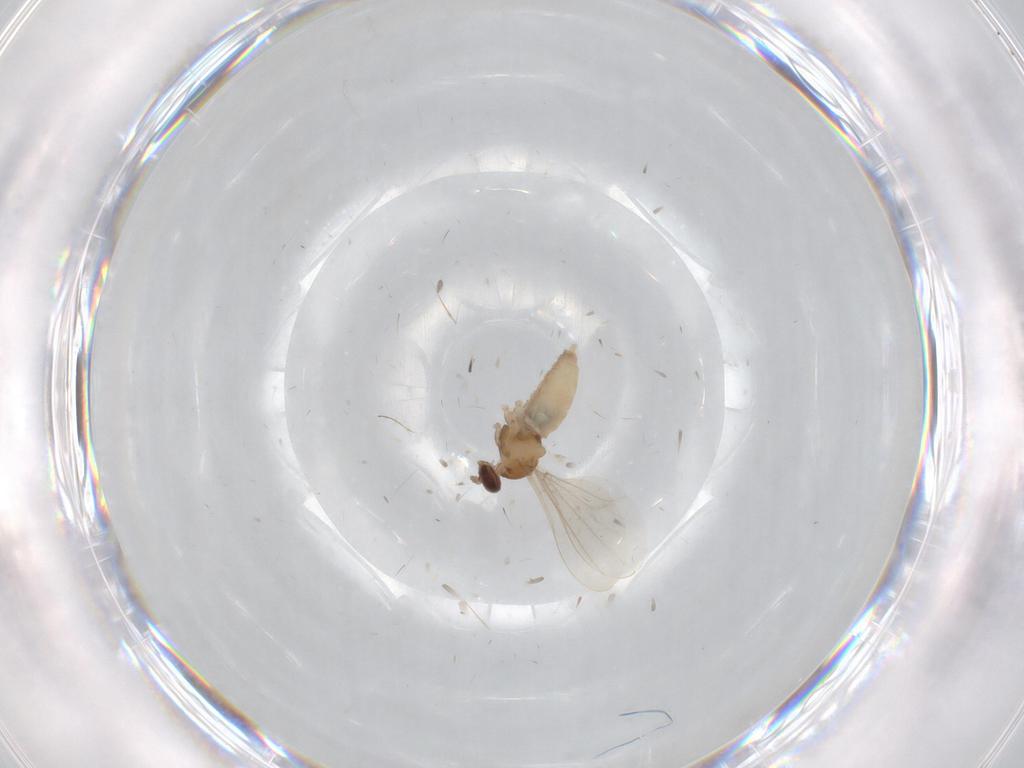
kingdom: Animalia
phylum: Arthropoda
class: Insecta
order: Diptera
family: Cecidomyiidae
